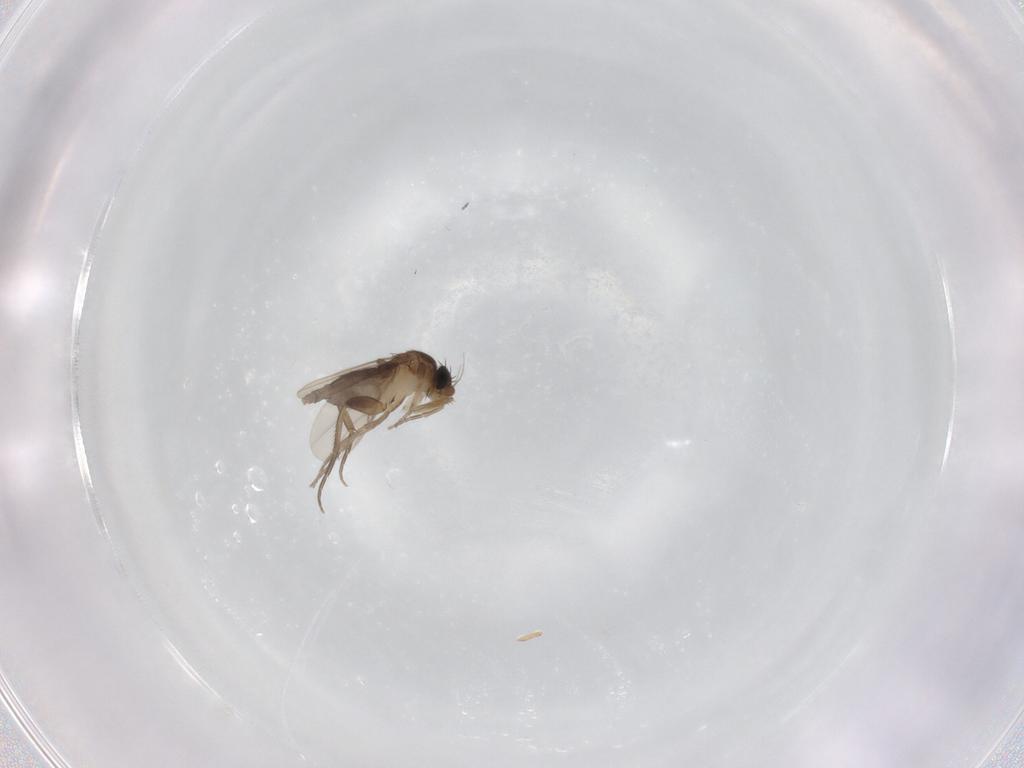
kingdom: Animalia
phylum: Arthropoda
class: Insecta
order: Diptera
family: Phoridae
